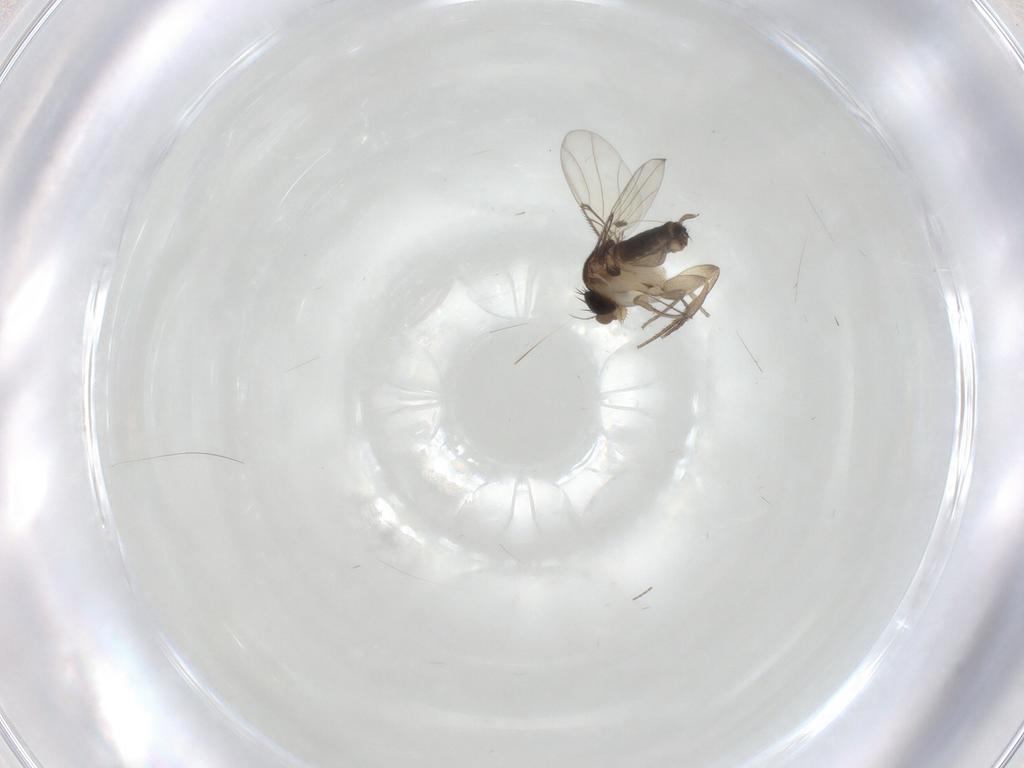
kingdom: Animalia
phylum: Arthropoda
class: Insecta
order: Diptera
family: Cecidomyiidae
